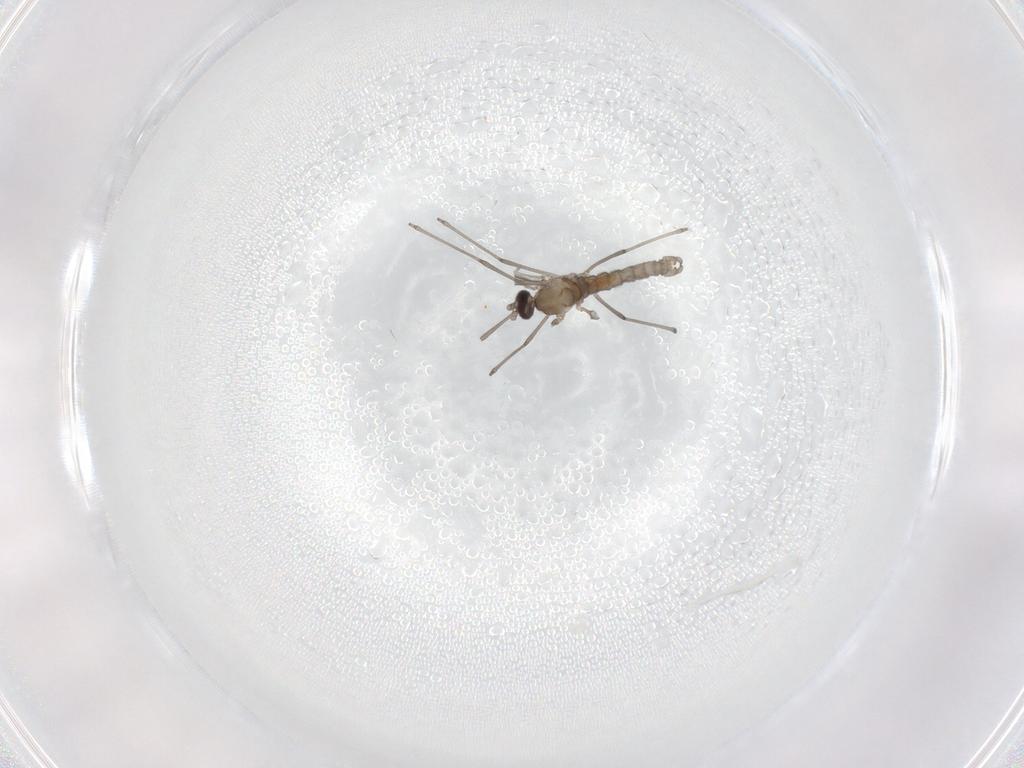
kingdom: Animalia
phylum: Arthropoda
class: Insecta
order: Diptera
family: Cecidomyiidae
